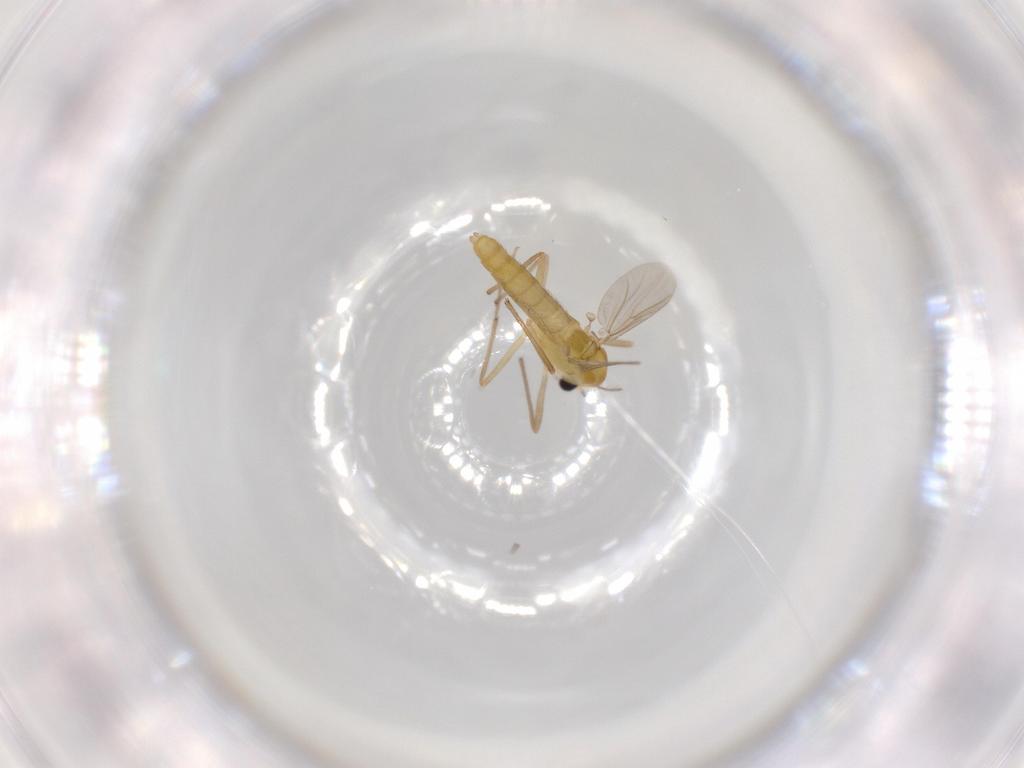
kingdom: Animalia
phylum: Arthropoda
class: Insecta
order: Diptera
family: Chironomidae
